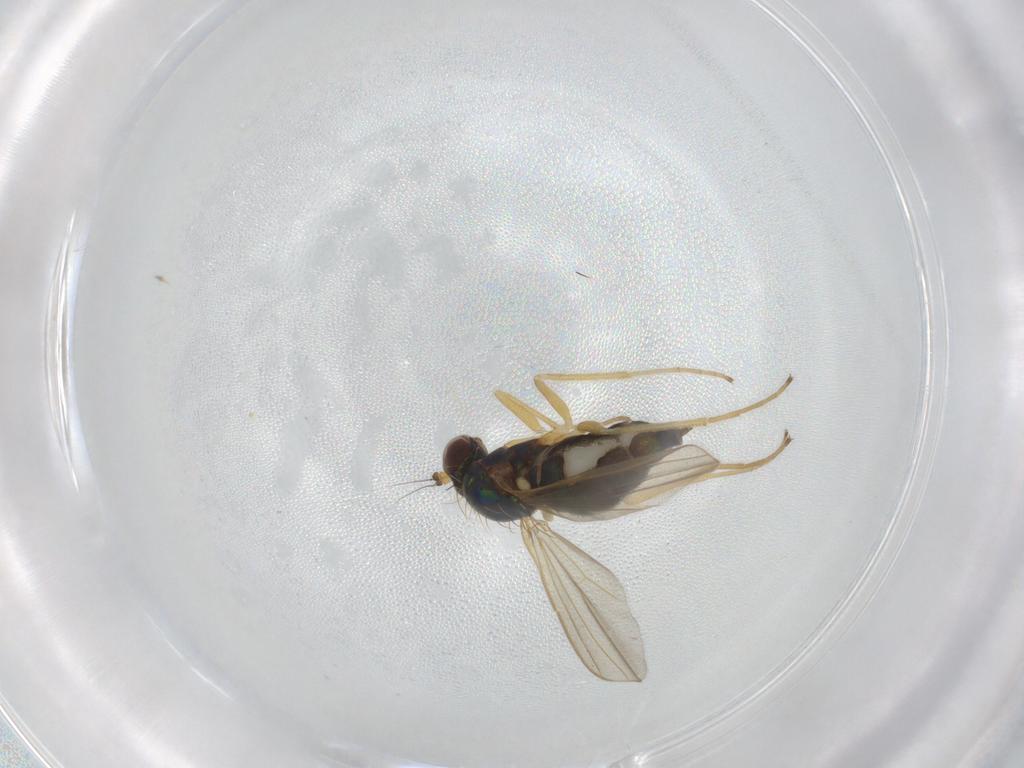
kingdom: Animalia
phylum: Arthropoda
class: Insecta
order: Diptera
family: Dolichopodidae
